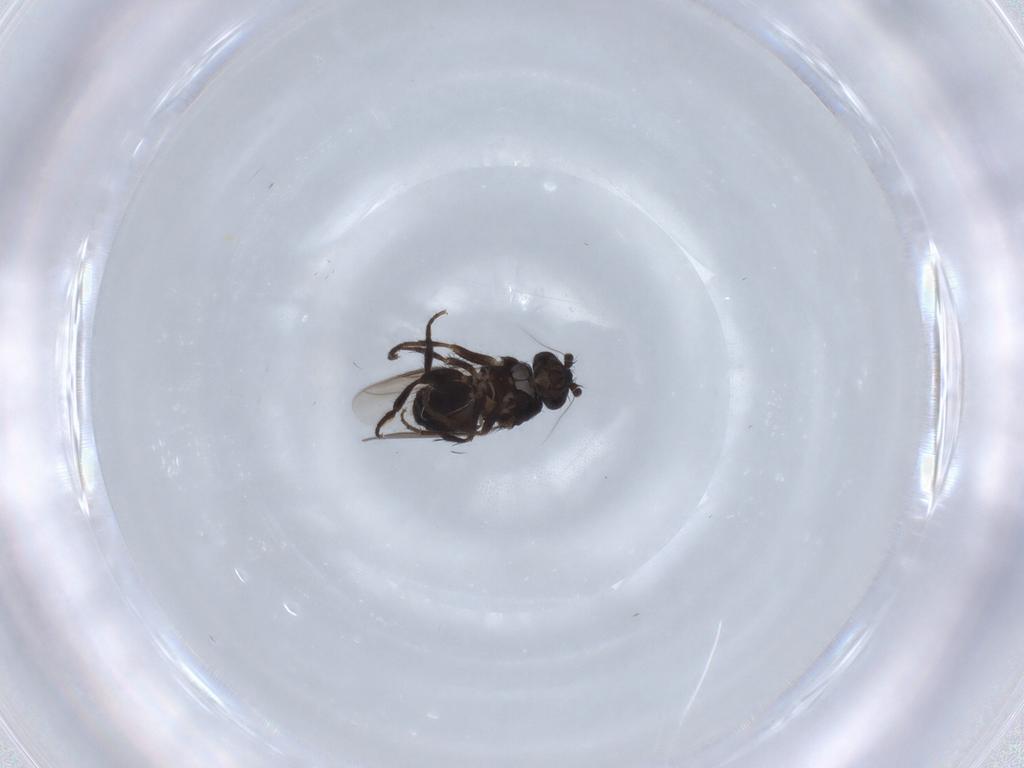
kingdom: Animalia
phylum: Arthropoda
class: Insecta
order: Diptera
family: Sphaeroceridae
